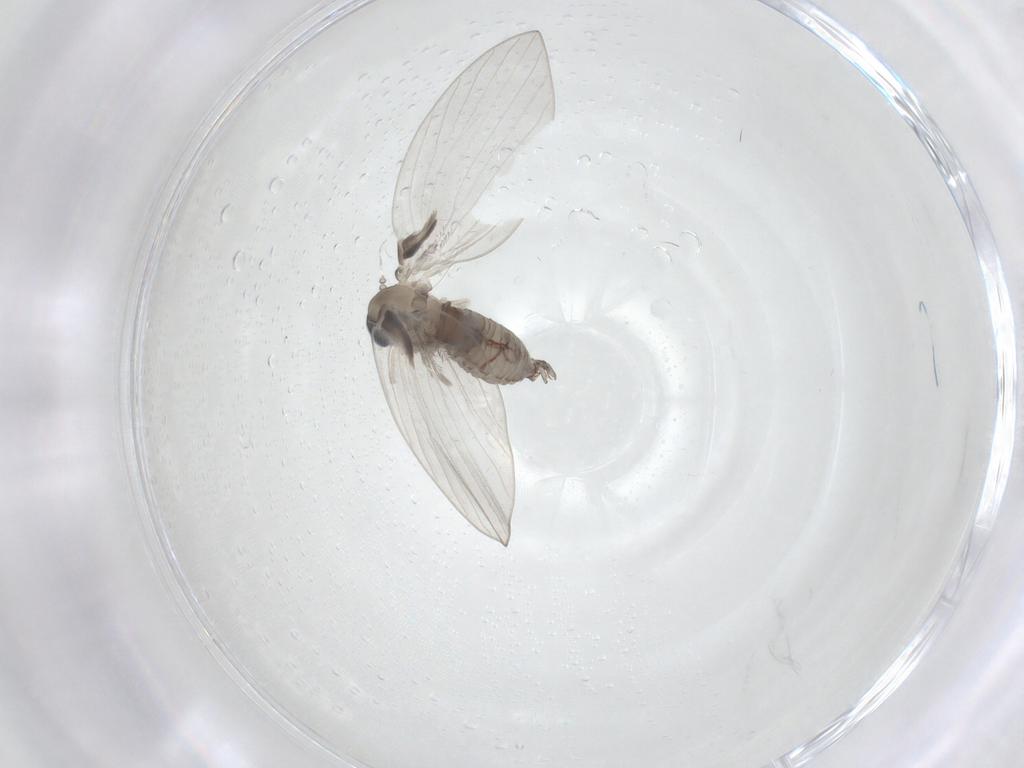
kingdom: Animalia
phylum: Arthropoda
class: Insecta
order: Diptera
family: Psychodidae
